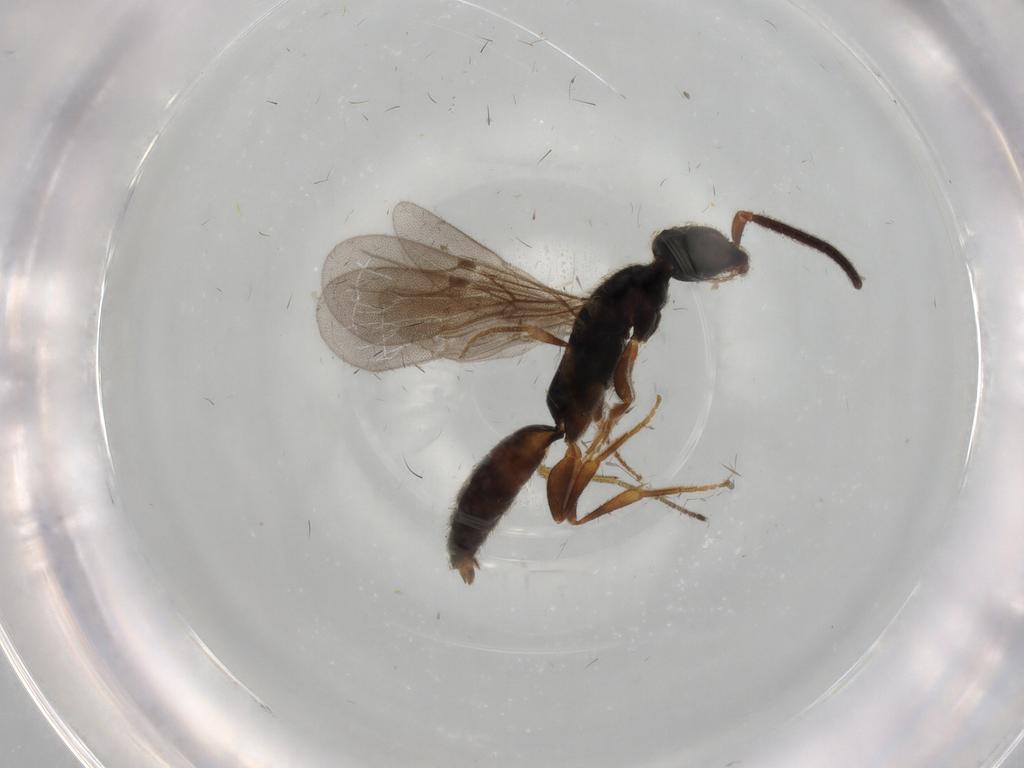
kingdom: Animalia
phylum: Arthropoda
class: Insecta
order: Hymenoptera
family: Bethylidae
